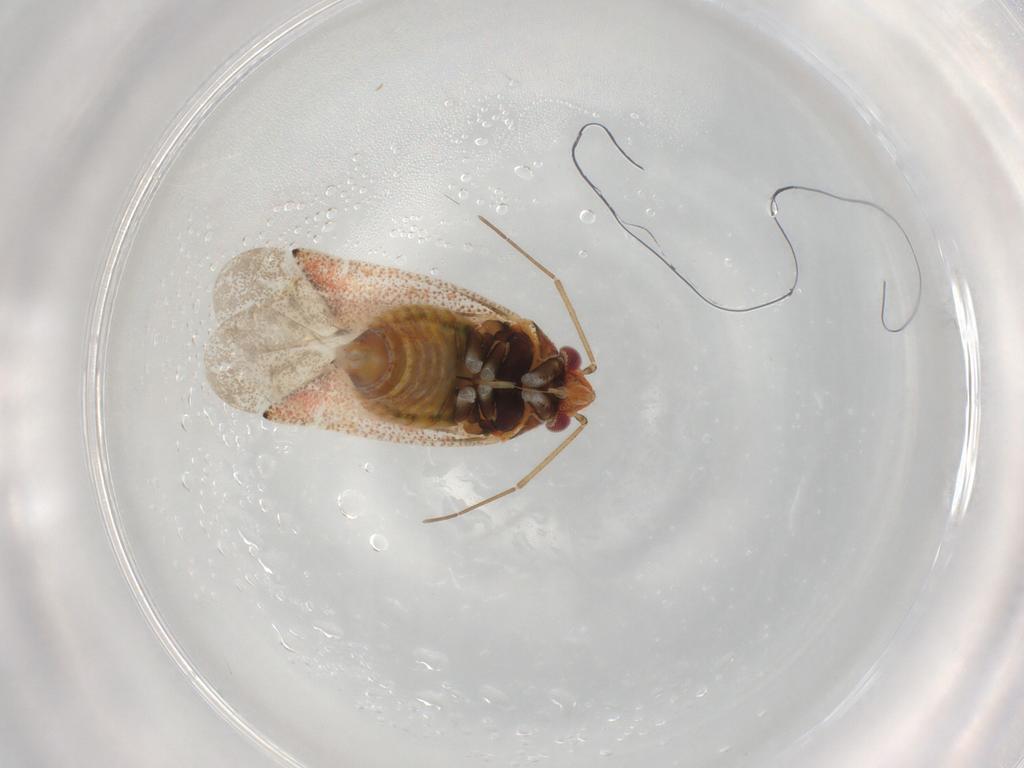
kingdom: Animalia
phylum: Arthropoda
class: Insecta
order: Hemiptera
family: Miridae
